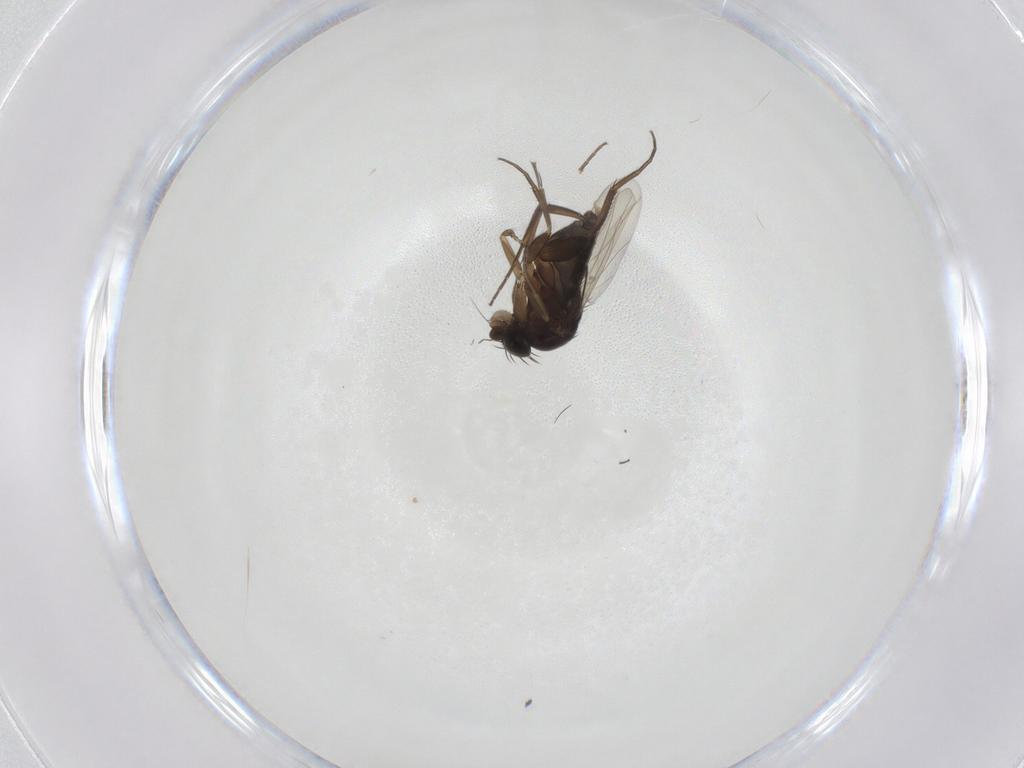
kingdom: Animalia
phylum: Arthropoda
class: Insecta
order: Diptera
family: Phoridae
